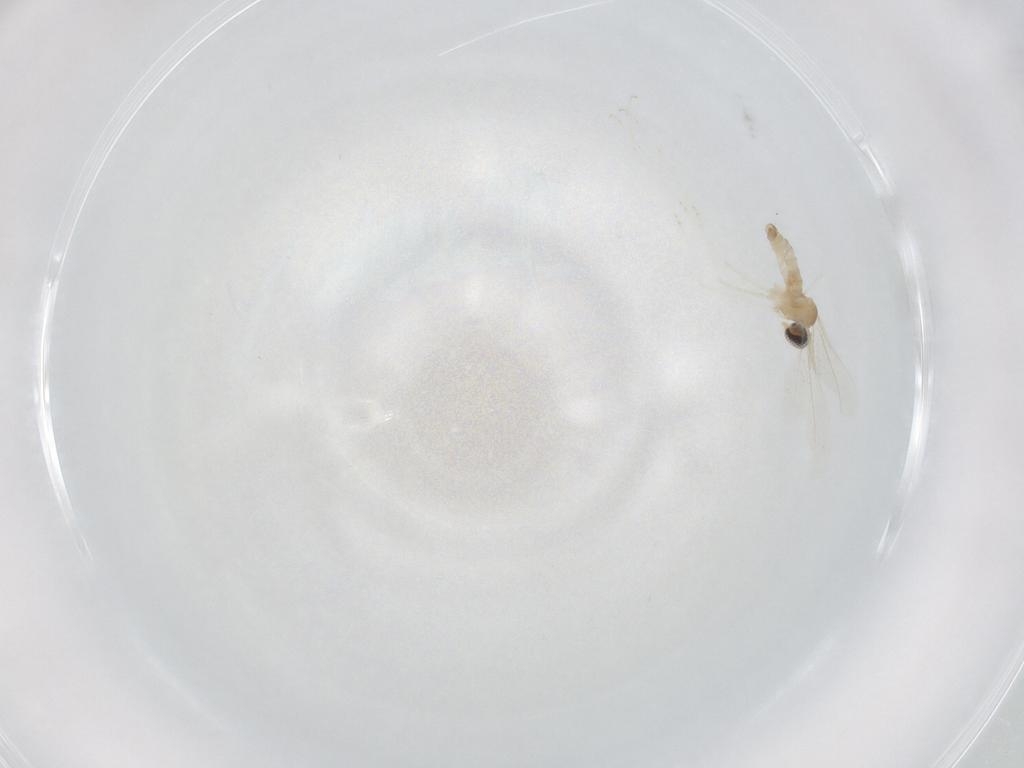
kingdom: Animalia
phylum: Arthropoda
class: Insecta
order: Diptera
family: Cecidomyiidae
